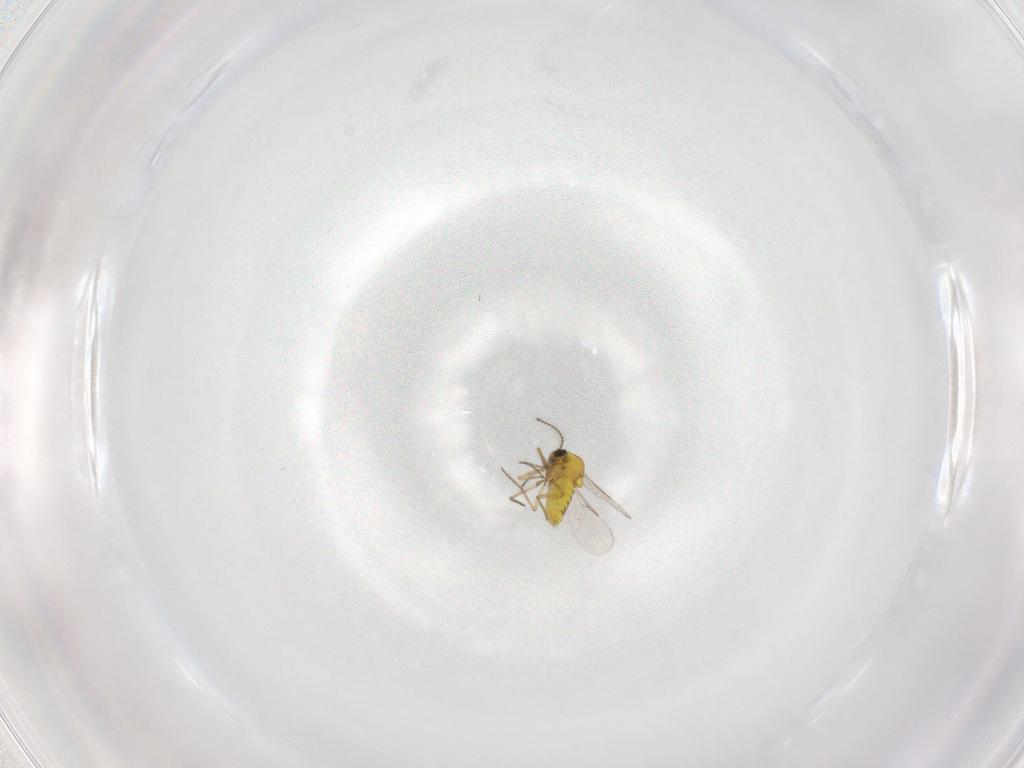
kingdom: Animalia
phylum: Arthropoda
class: Insecta
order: Diptera
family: Ceratopogonidae
